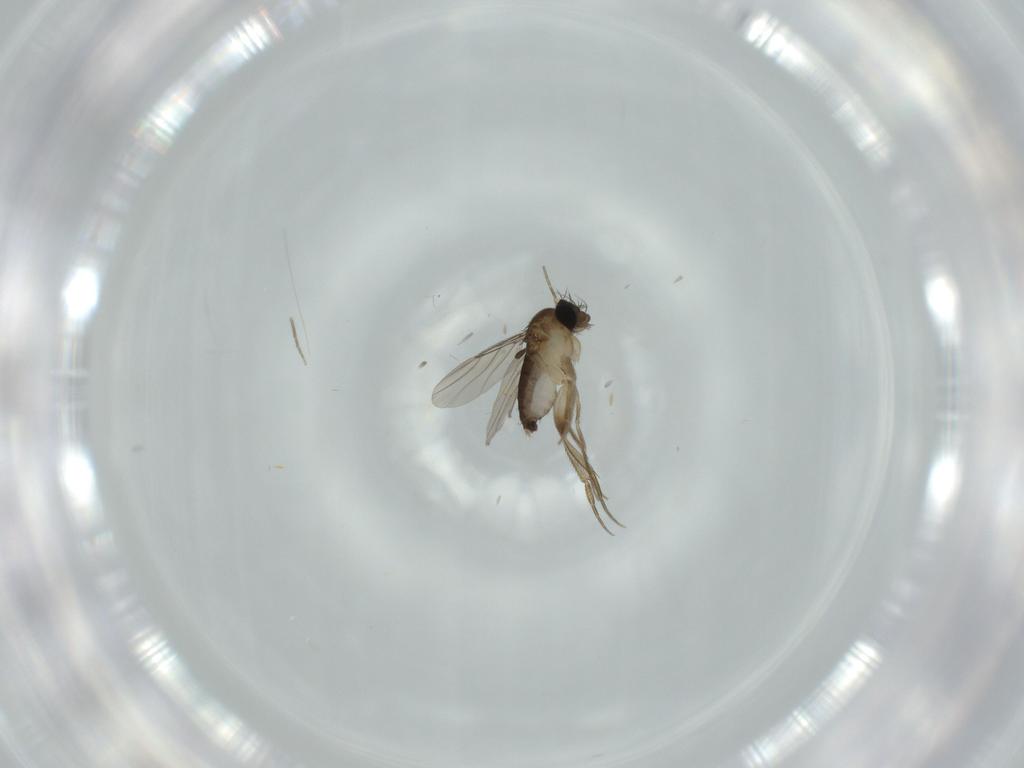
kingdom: Animalia
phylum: Arthropoda
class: Insecta
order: Diptera
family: Phoridae
